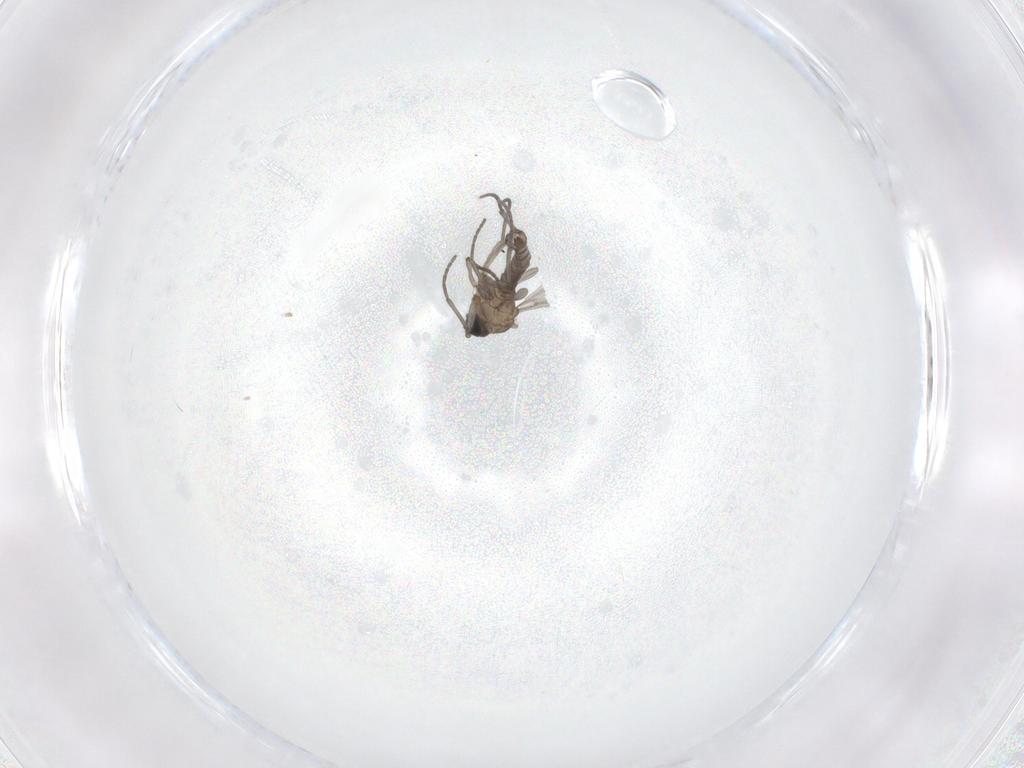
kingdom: Animalia
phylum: Arthropoda
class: Insecta
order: Diptera
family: Sciaridae
